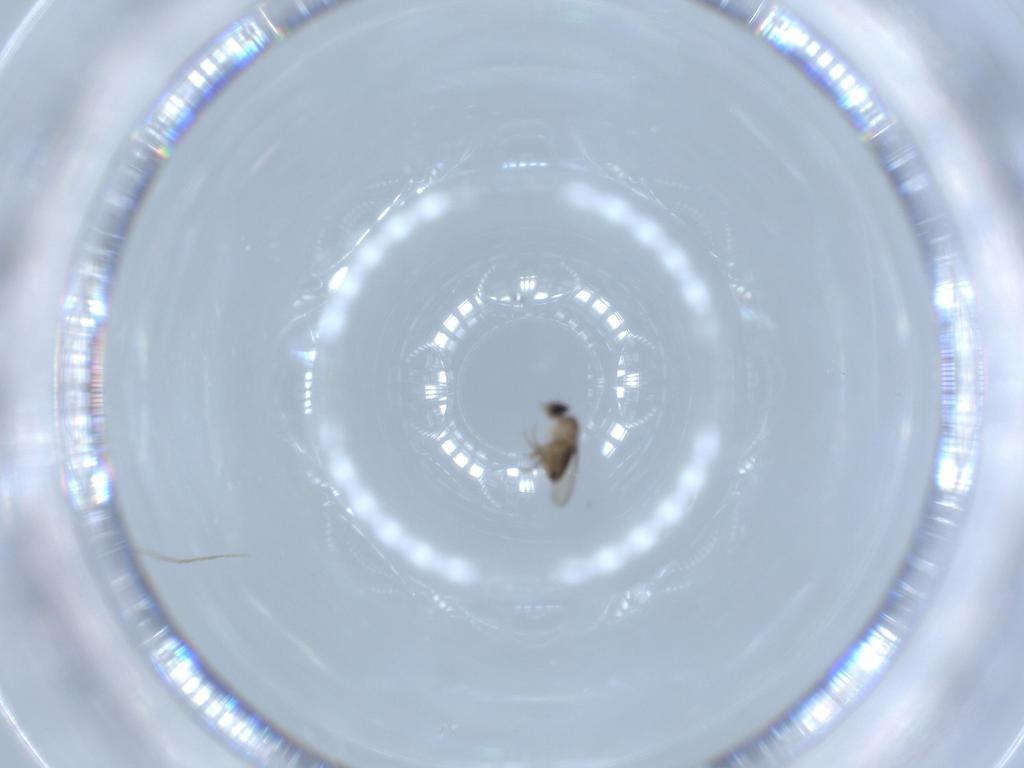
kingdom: Animalia
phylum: Arthropoda
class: Insecta
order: Diptera
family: Phoridae
